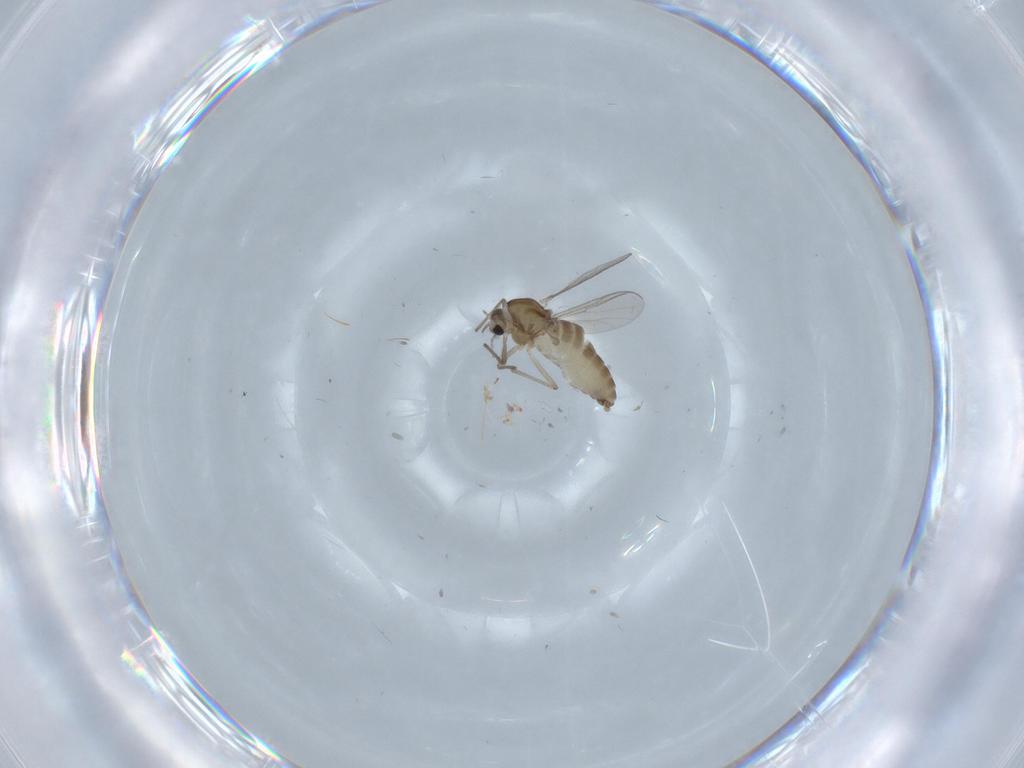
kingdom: Animalia
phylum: Arthropoda
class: Insecta
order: Diptera
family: Chironomidae
